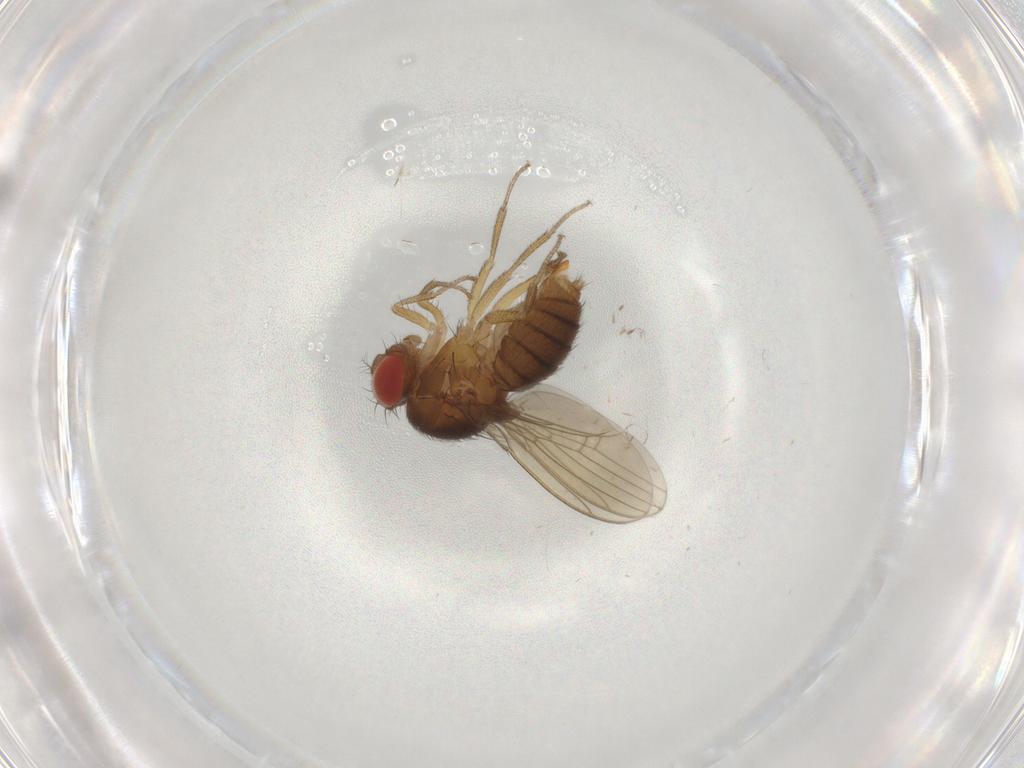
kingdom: Animalia
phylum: Arthropoda
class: Insecta
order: Diptera
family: Drosophilidae
